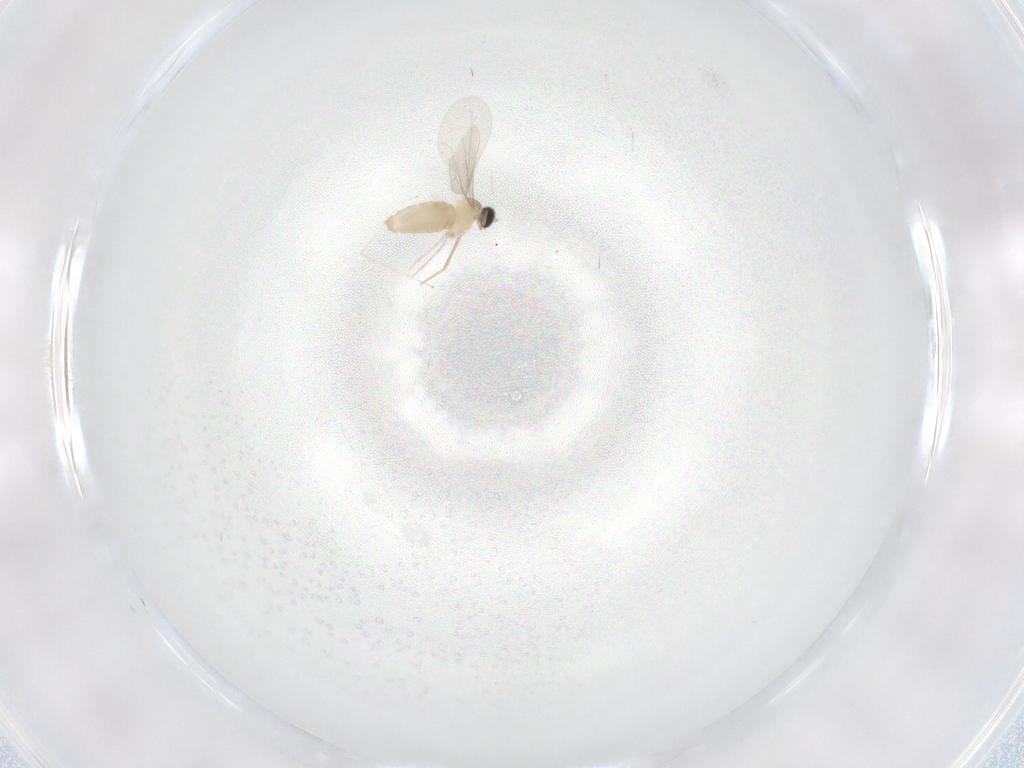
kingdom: Animalia
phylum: Arthropoda
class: Insecta
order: Diptera
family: Cecidomyiidae
